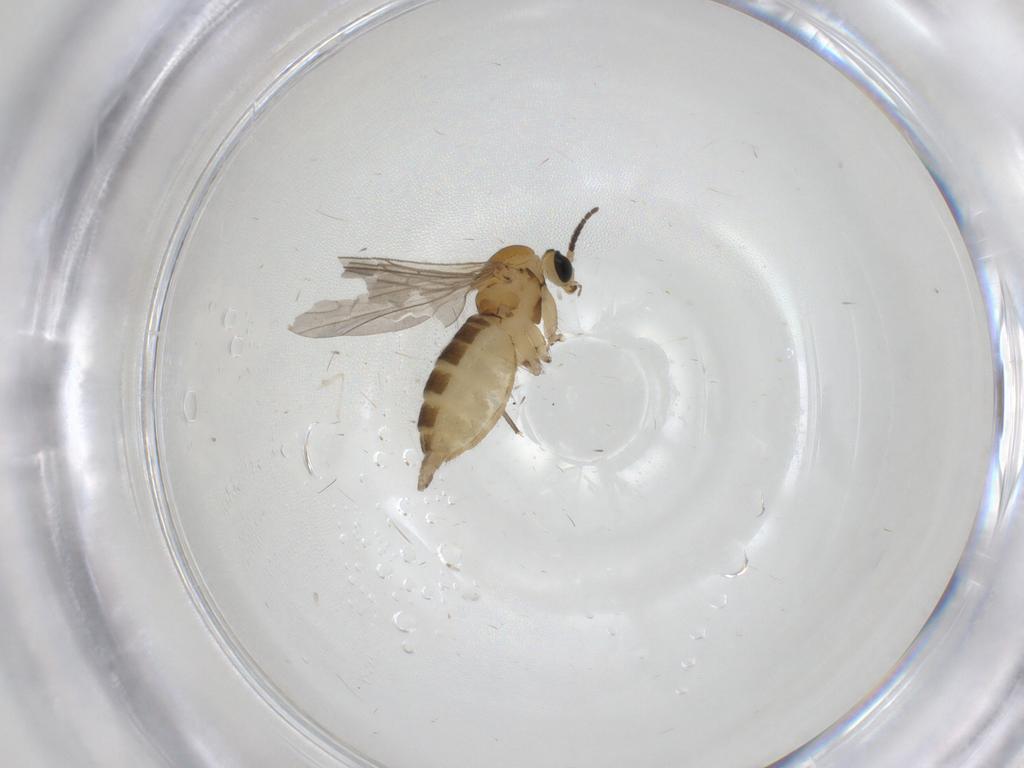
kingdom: Animalia
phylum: Arthropoda
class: Insecta
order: Diptera
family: Sciaridae
